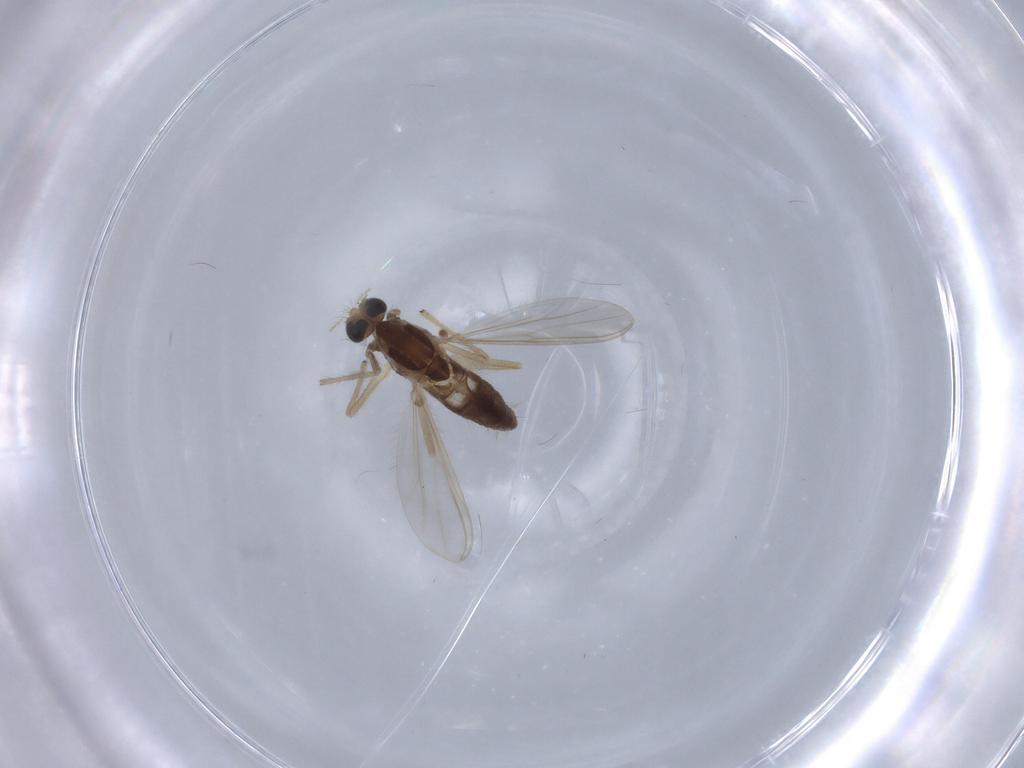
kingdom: Animalia
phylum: Arthropoda
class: Insecta
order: Diptera
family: Chironomidae
